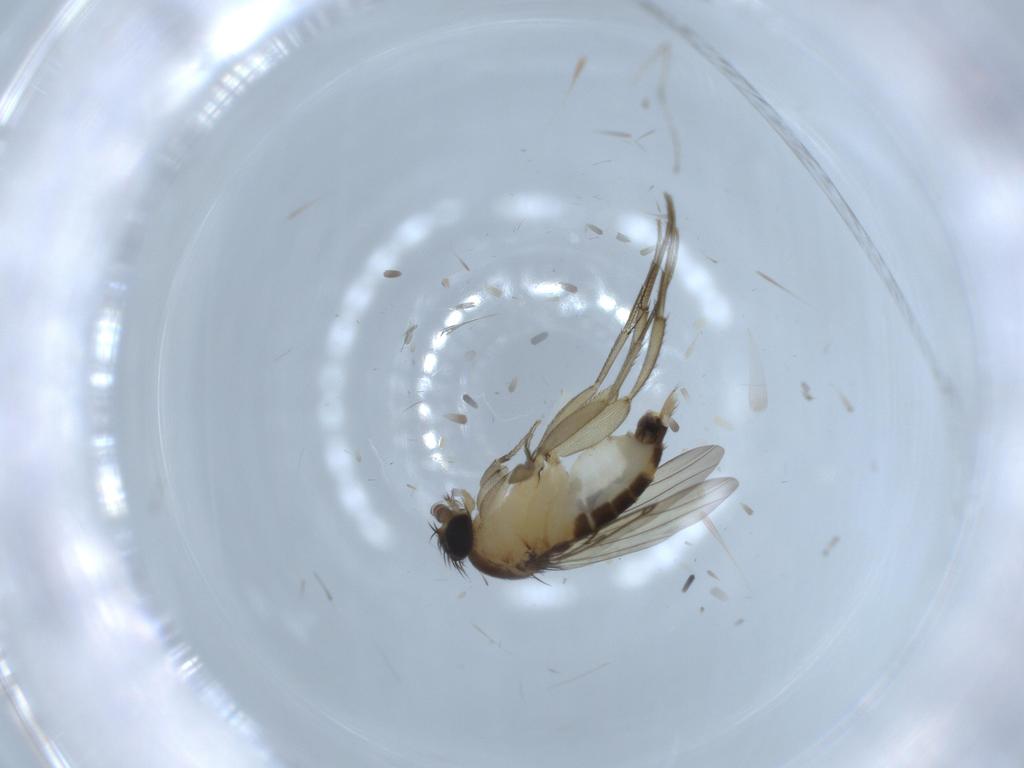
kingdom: Animalia
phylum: Arthropoda
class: Insecta
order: Diptera
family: Cecidomyiidae
